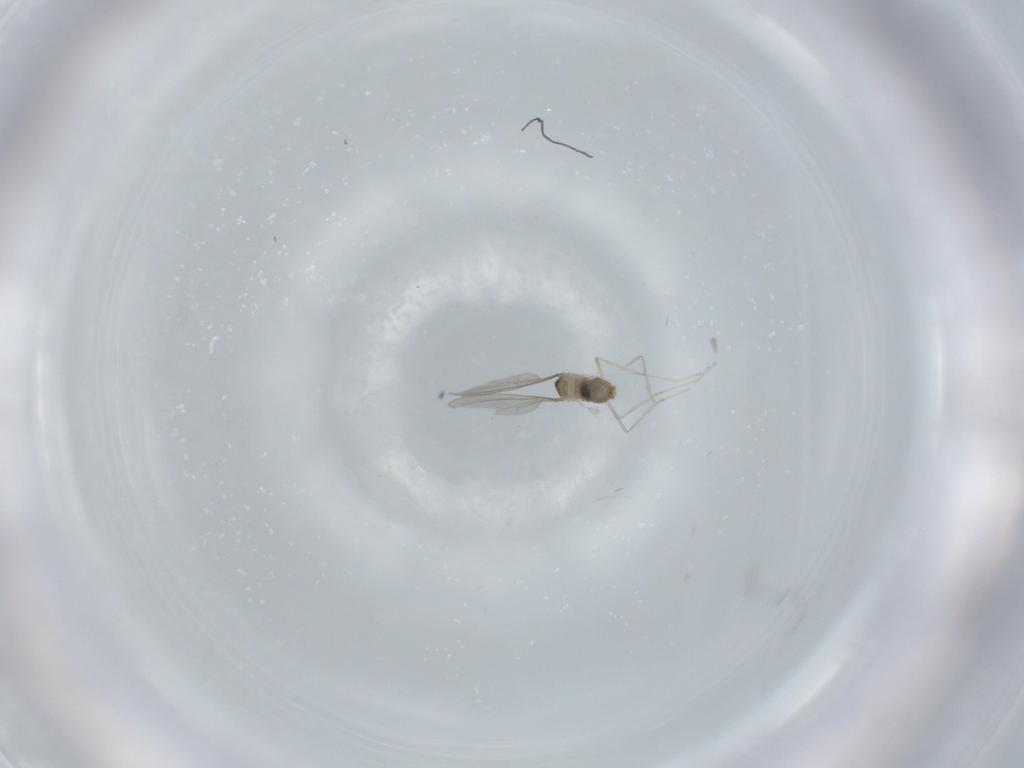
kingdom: Animalia
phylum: Arthropoda
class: Insecta
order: Diptera
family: Cecidomyiidae
